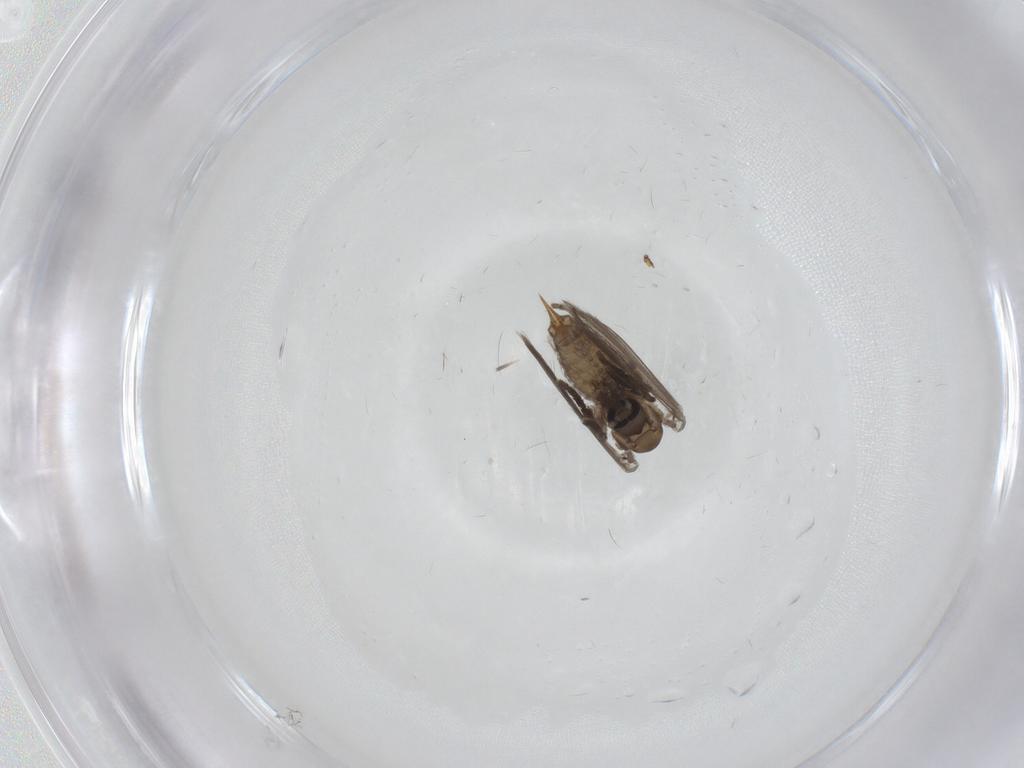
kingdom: Animalia
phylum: Arthropoda
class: Insecta
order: Diptera
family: Psychodidae
